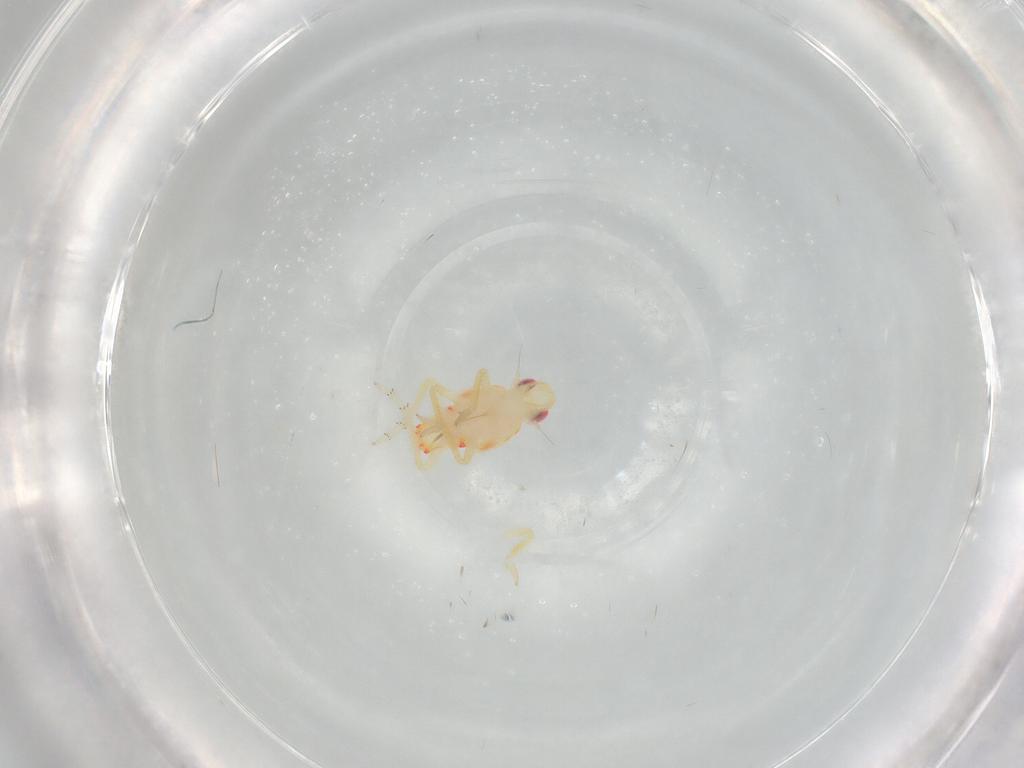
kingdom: Animalia
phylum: Arthropoda
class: Insecta
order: Hemiptera
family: Tropiduchidae
